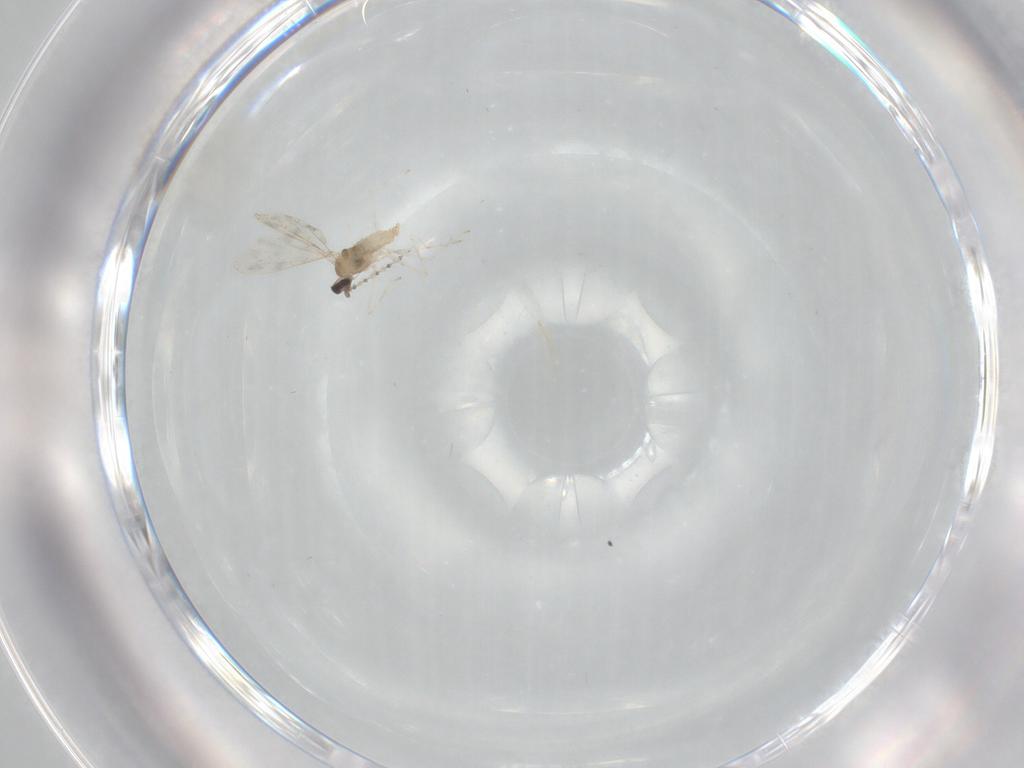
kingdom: Animalia
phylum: Arthropoda
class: Insecta
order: Diptera
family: Cecidomyiidae
